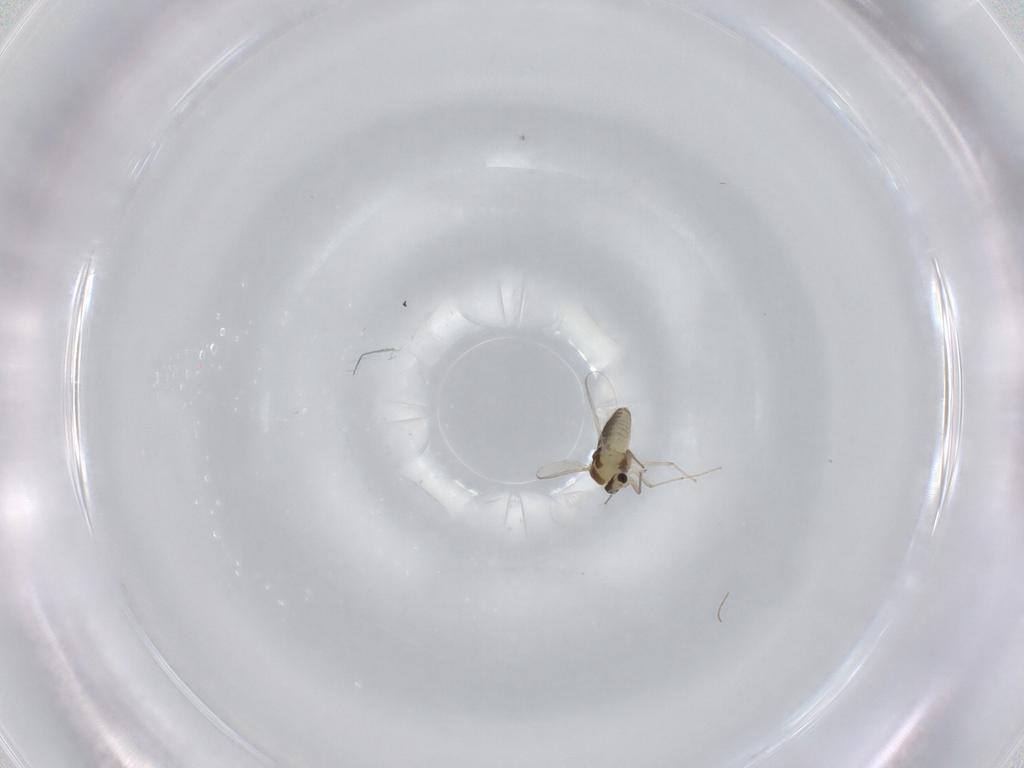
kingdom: Animalia
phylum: Arthropoda
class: Insecta
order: Diptera
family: Chironomidae
